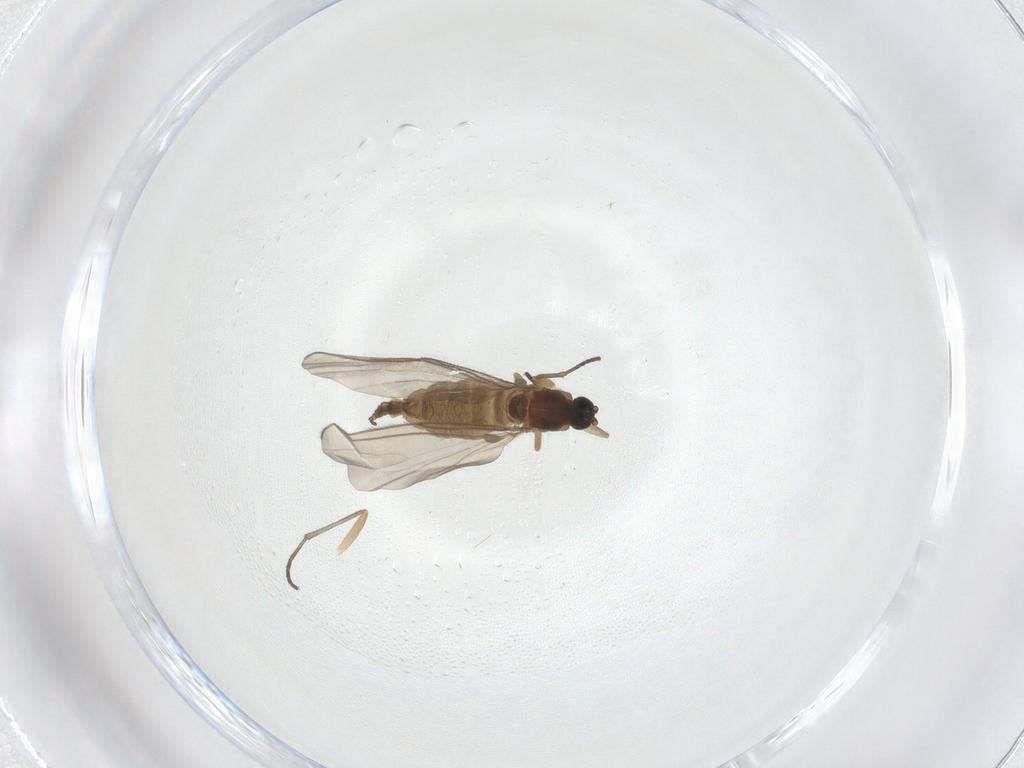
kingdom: Animalia
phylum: Arthropoda
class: Insecta
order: Diptera
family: Sciaridae
